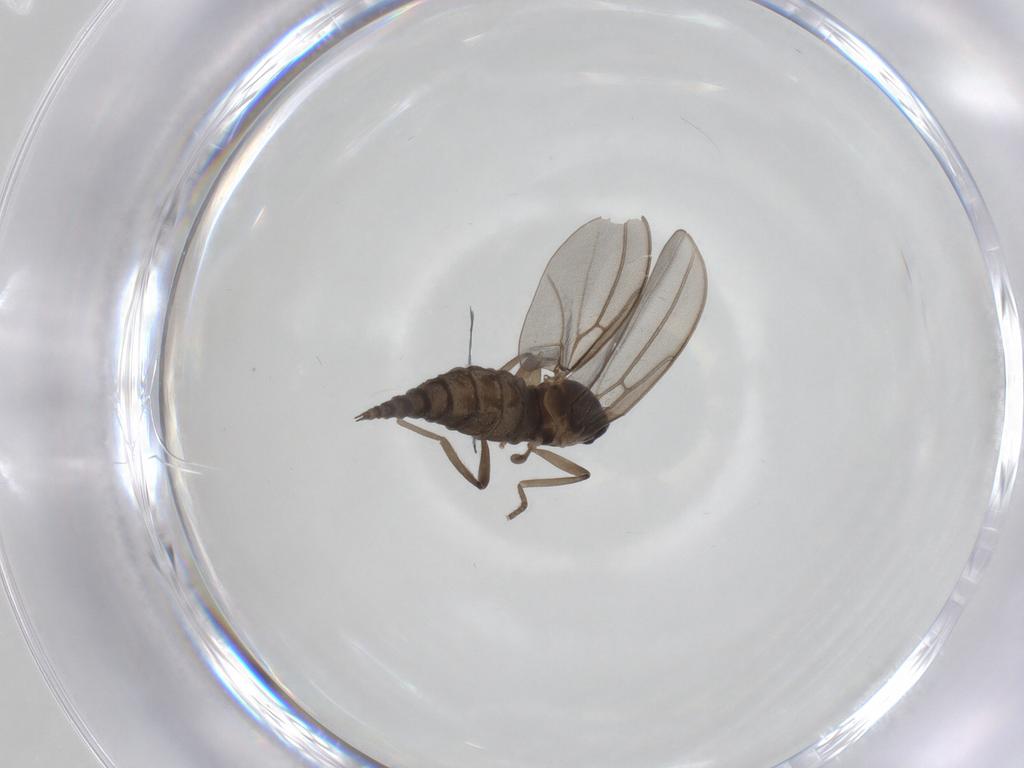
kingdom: Animalia
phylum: Arthropoda
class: Insecta
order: Diptera
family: Cecidomyiidae
